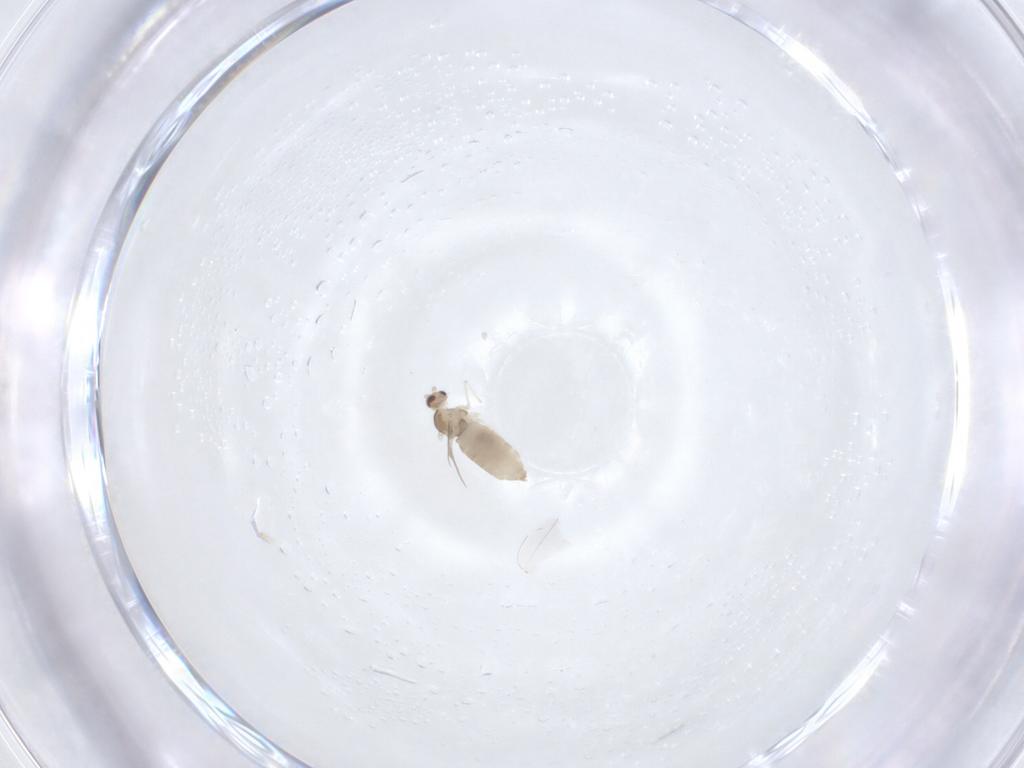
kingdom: Animalia
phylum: Arthropoda
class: Insecta
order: Diptera
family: Cecidomyiidae
